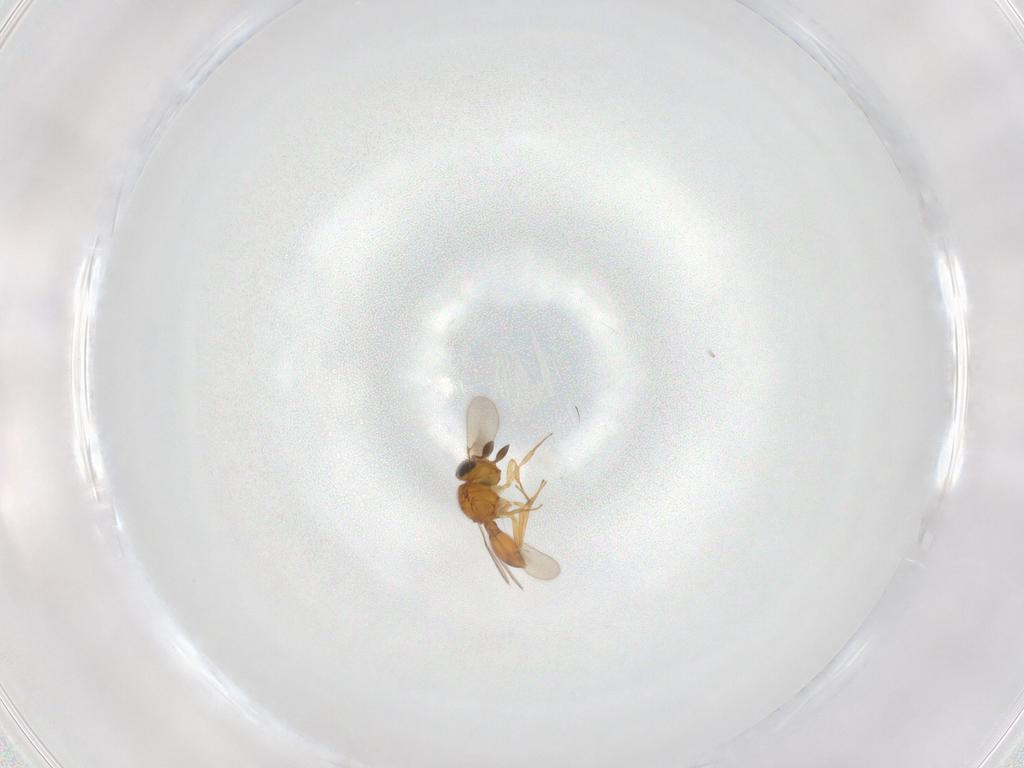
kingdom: Animalia
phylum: Arthropoda
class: Insecta
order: Hymenoptera
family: Scelionidae
